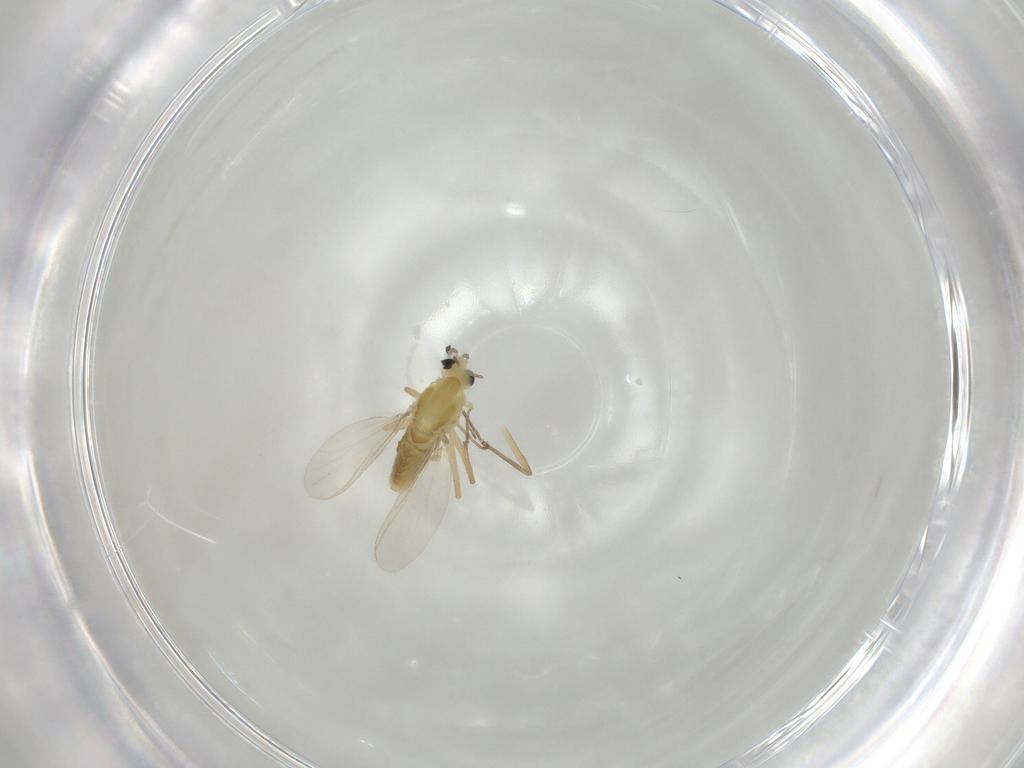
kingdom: Animalia
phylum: Arthropoda
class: Insecta
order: Diptera
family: Chironomidae
